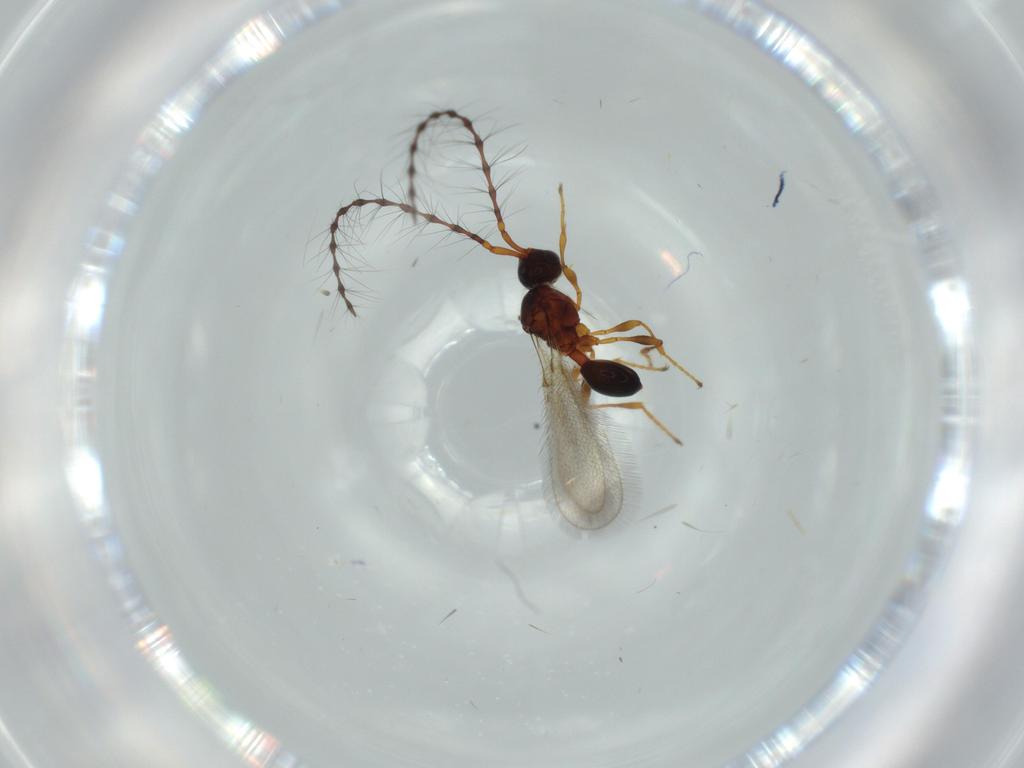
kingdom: Animalia
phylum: Arthropoda
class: Insecta
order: Hymenoptera
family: Diapriidae
